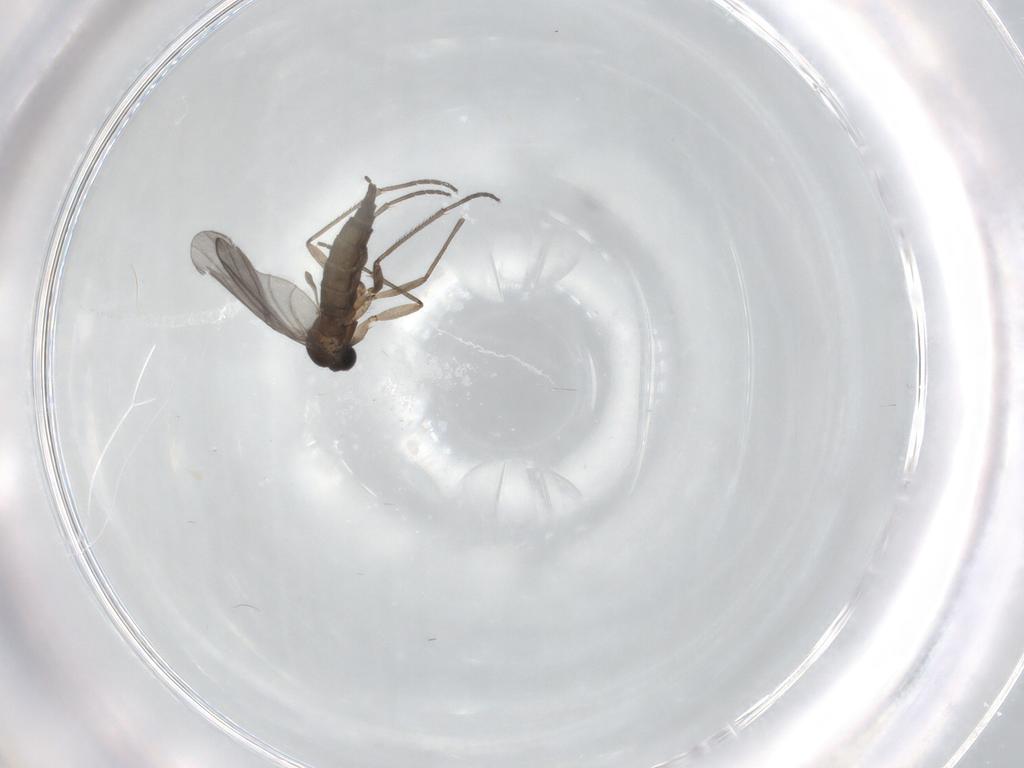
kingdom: Animalia
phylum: Arthropoda
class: Insecta
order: Diptera
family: Sciaridae
